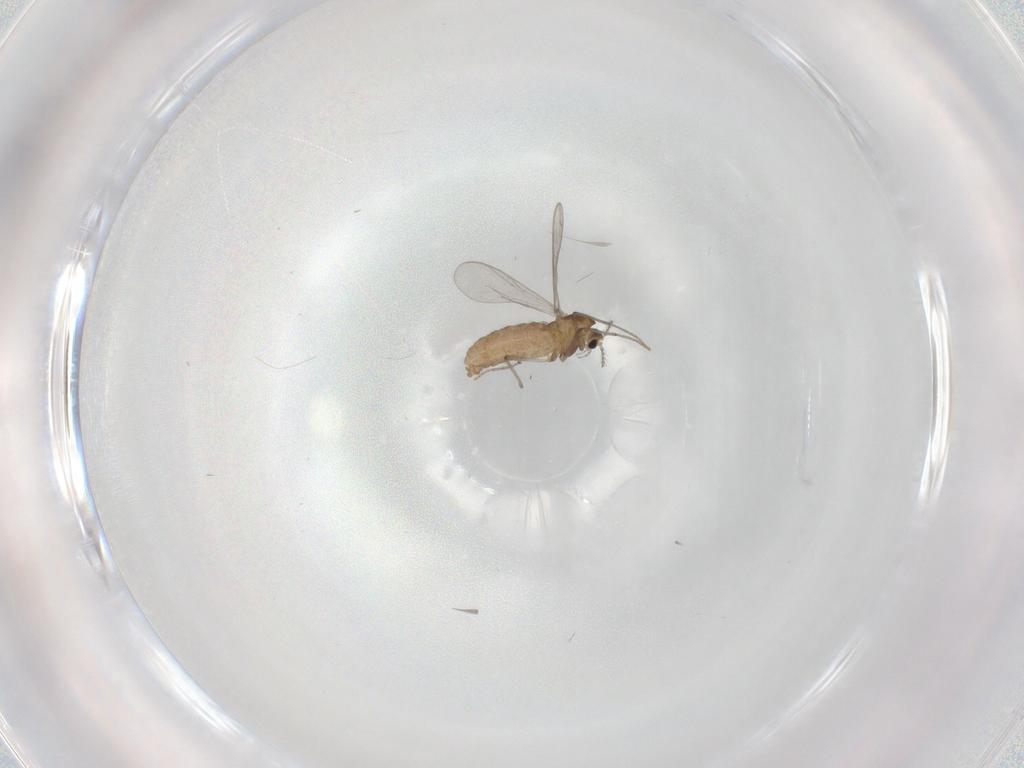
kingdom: Animalia
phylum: Arthropoda
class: Insecta
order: Diptera
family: Chironomidae
